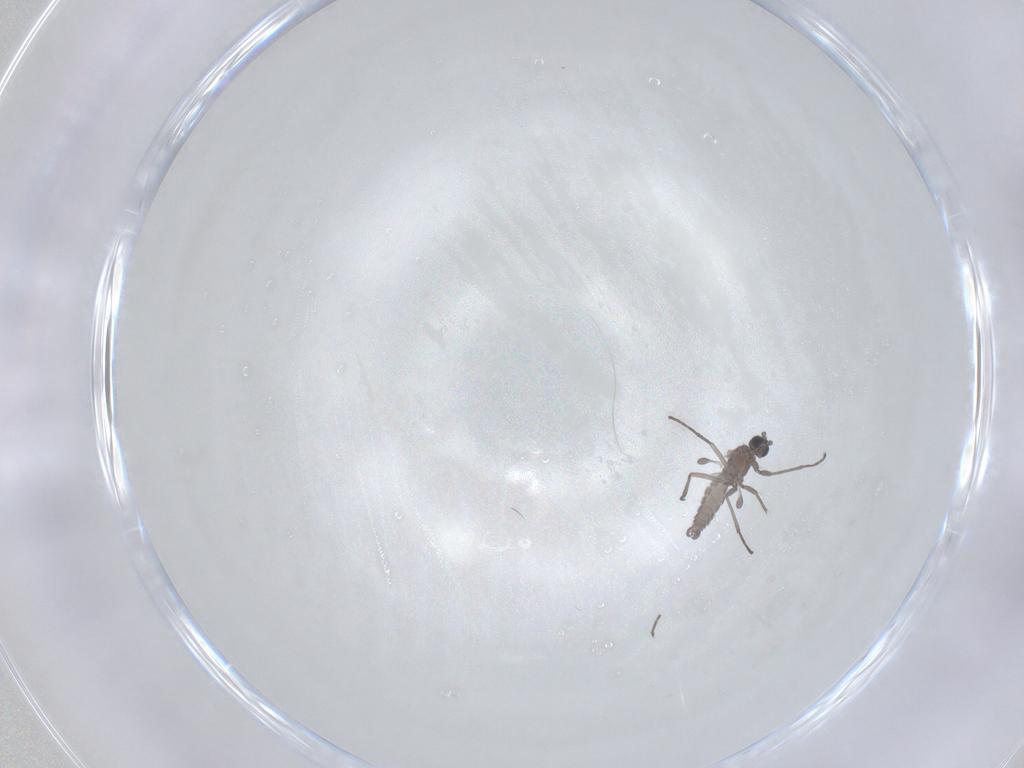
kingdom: Animalia
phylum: Arthropoda
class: Insecta
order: Diptera
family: Sciaridae
